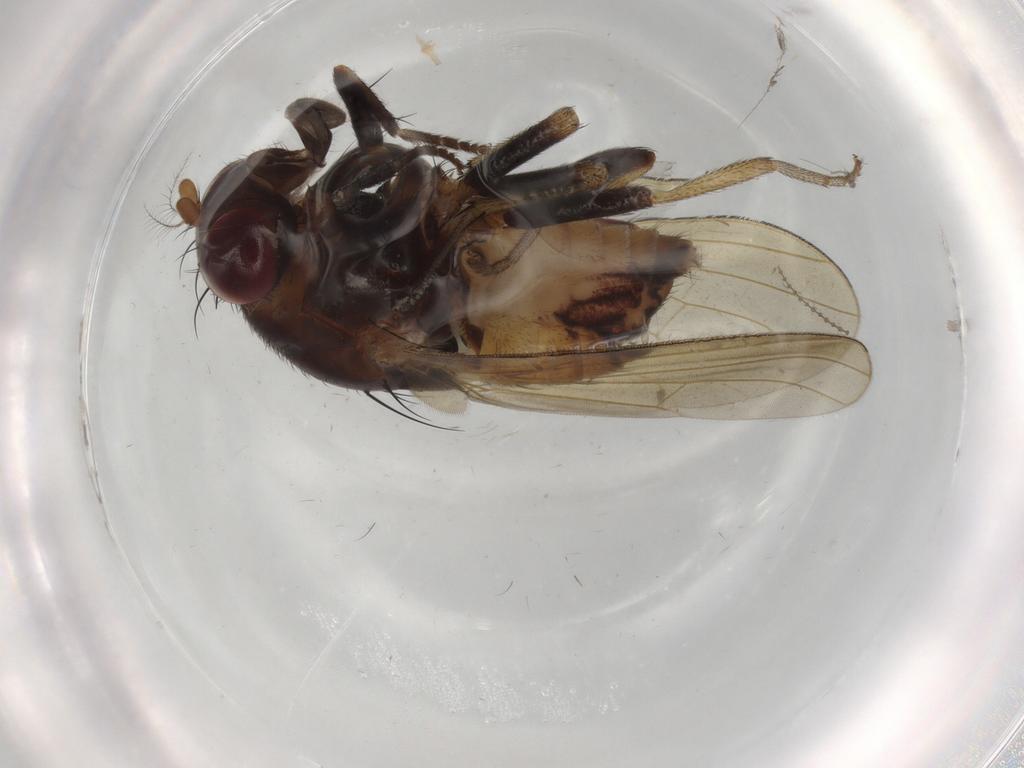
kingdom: Animalia
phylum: Arthropoda
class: Insecta
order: Diptera
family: Lauxaniidae
